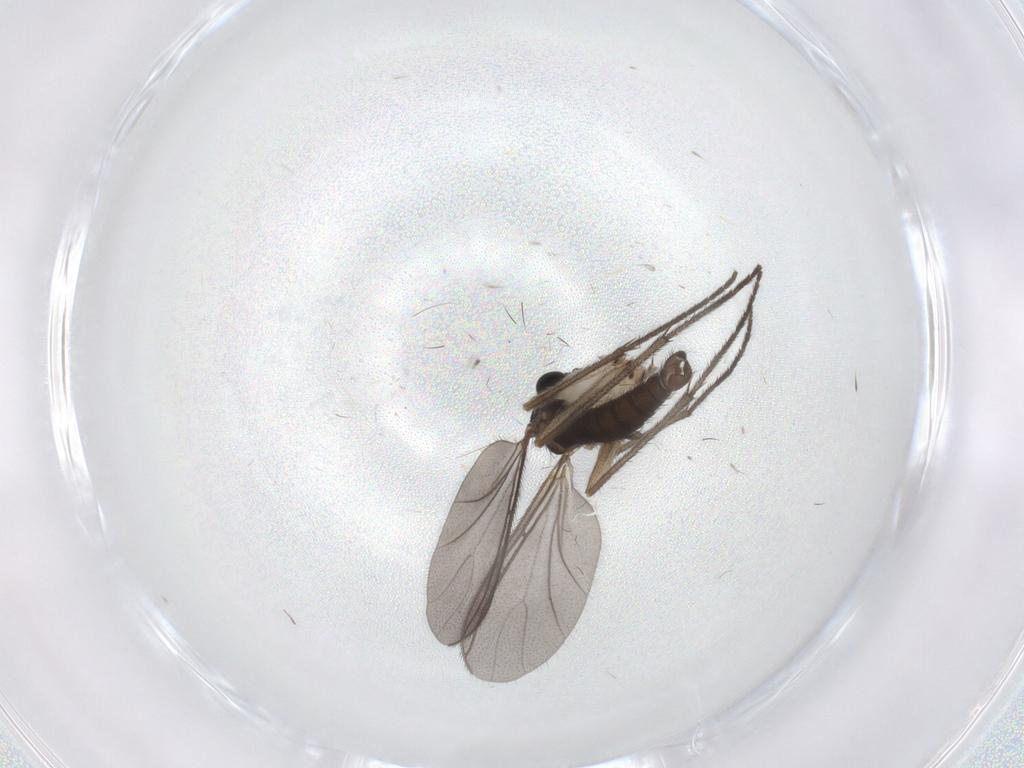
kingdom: Animalia
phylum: Arthropoda
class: Insecta
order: Diptera
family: Sciaridae
